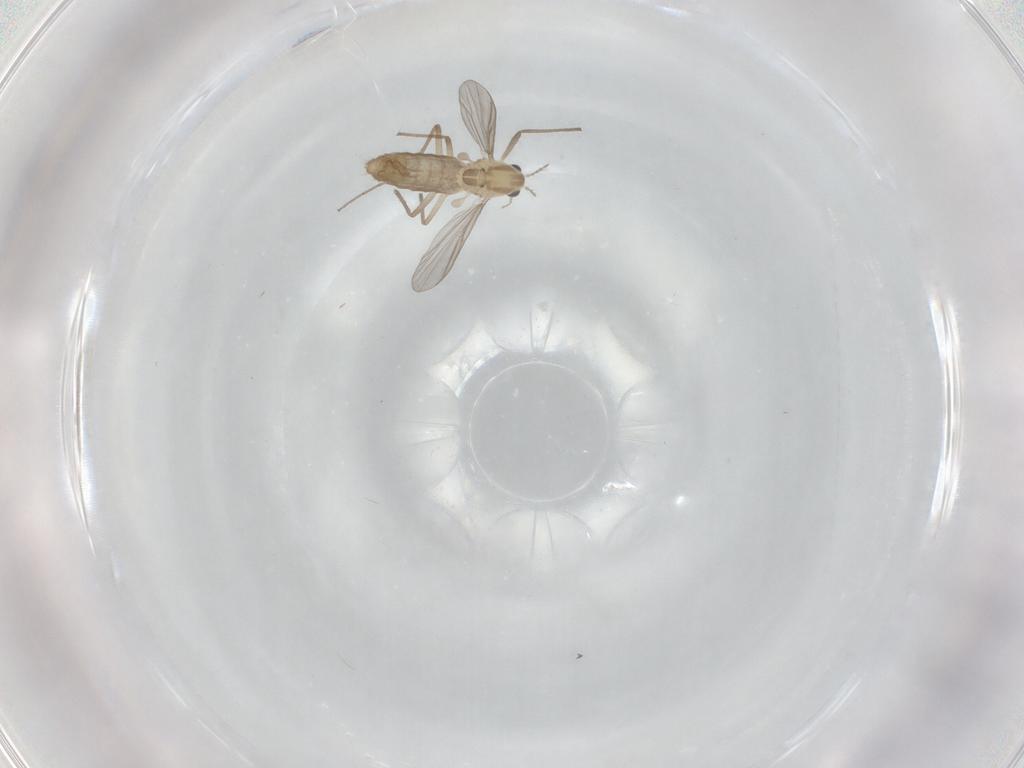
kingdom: Animalia
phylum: Arthropoda
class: Insecta
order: Diptera
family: Chironomidae
